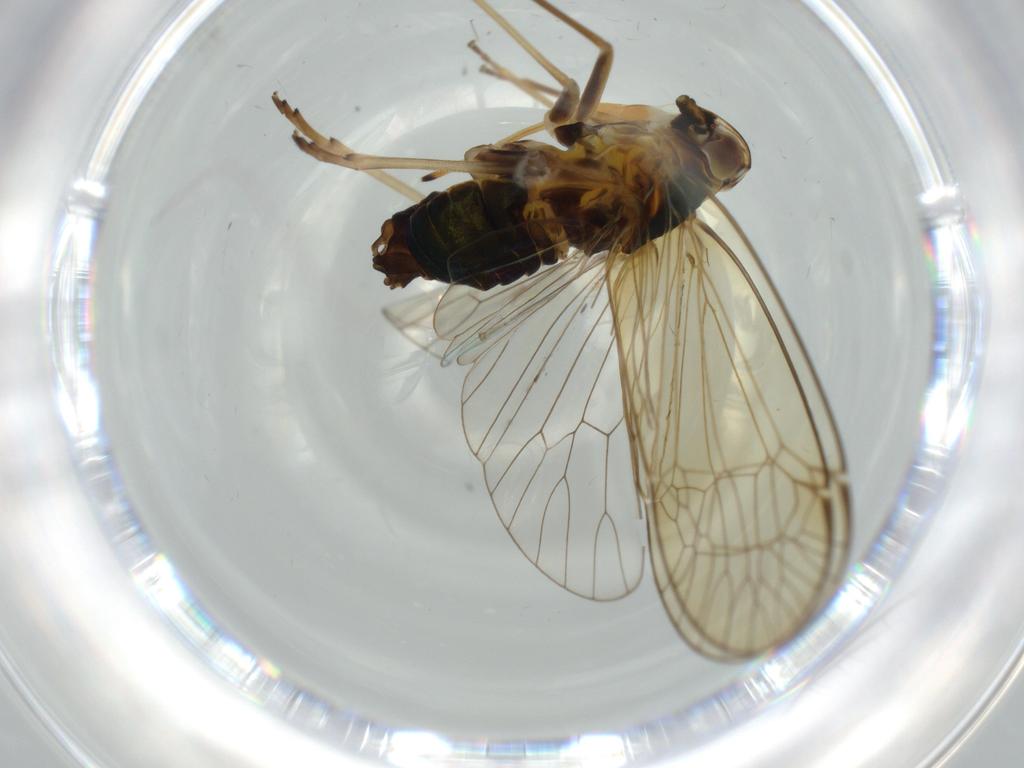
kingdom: Animalia
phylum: Arthropoda
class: Insecta
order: Hemiptera
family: Kinnaridae
